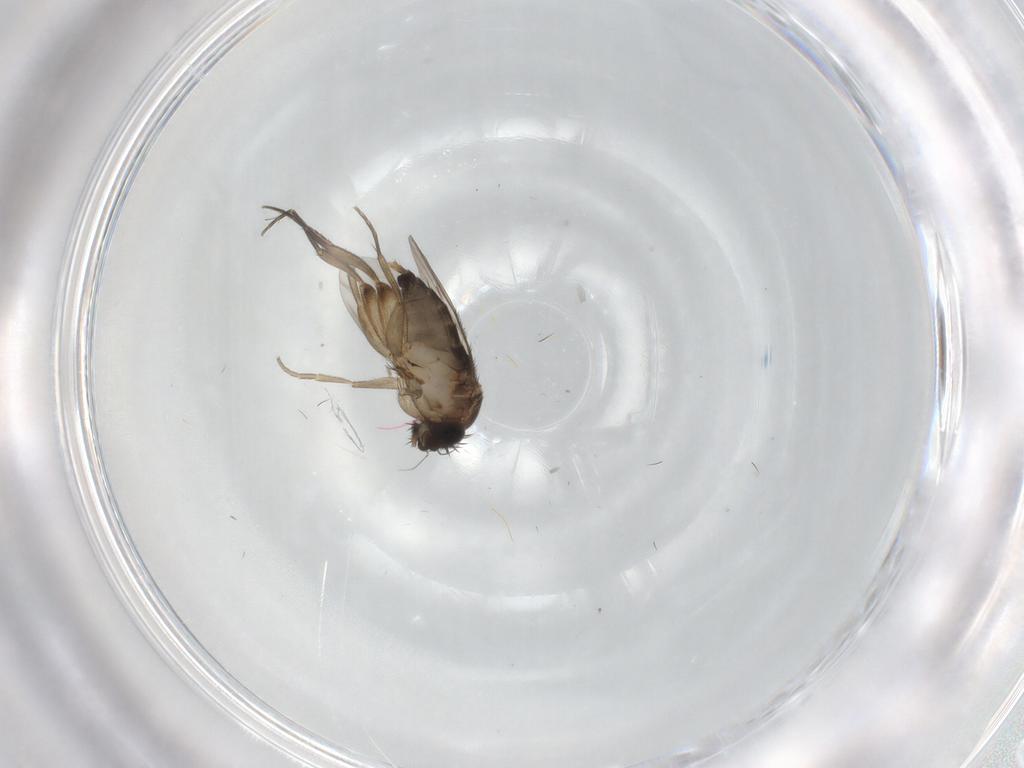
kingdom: Animalia
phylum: Arthropoda
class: Insecta
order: Diptera
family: Phoridae
